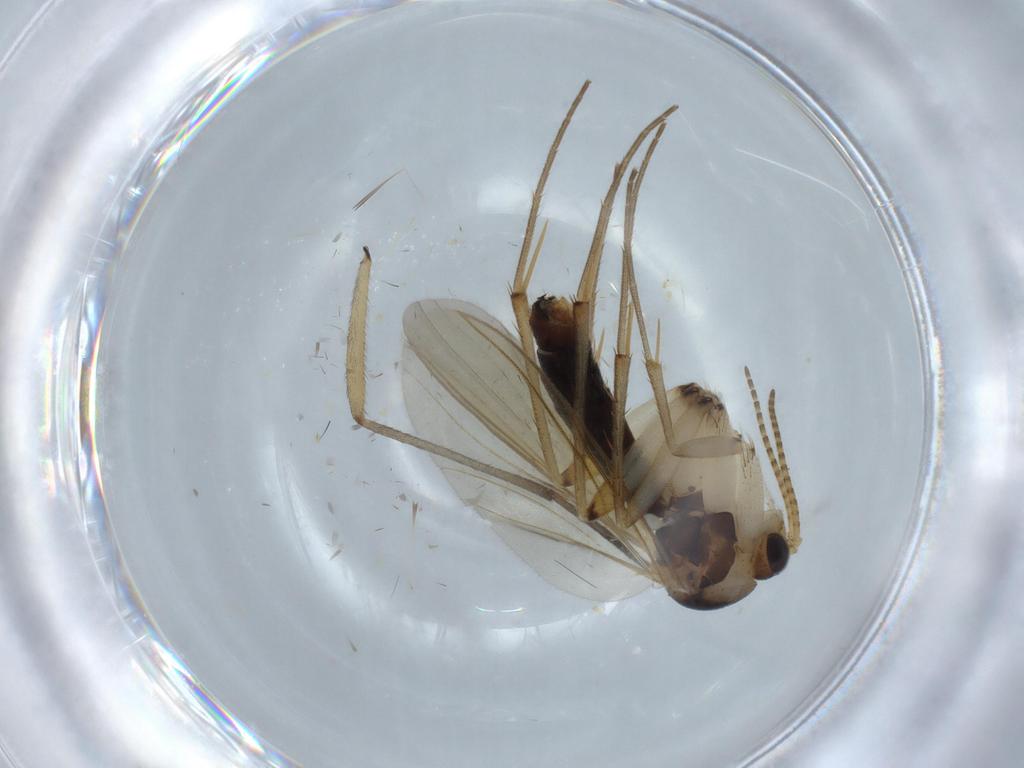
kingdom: Animalia
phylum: Arthropoda
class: Insecta
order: Diptera
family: Mycetophilidae
